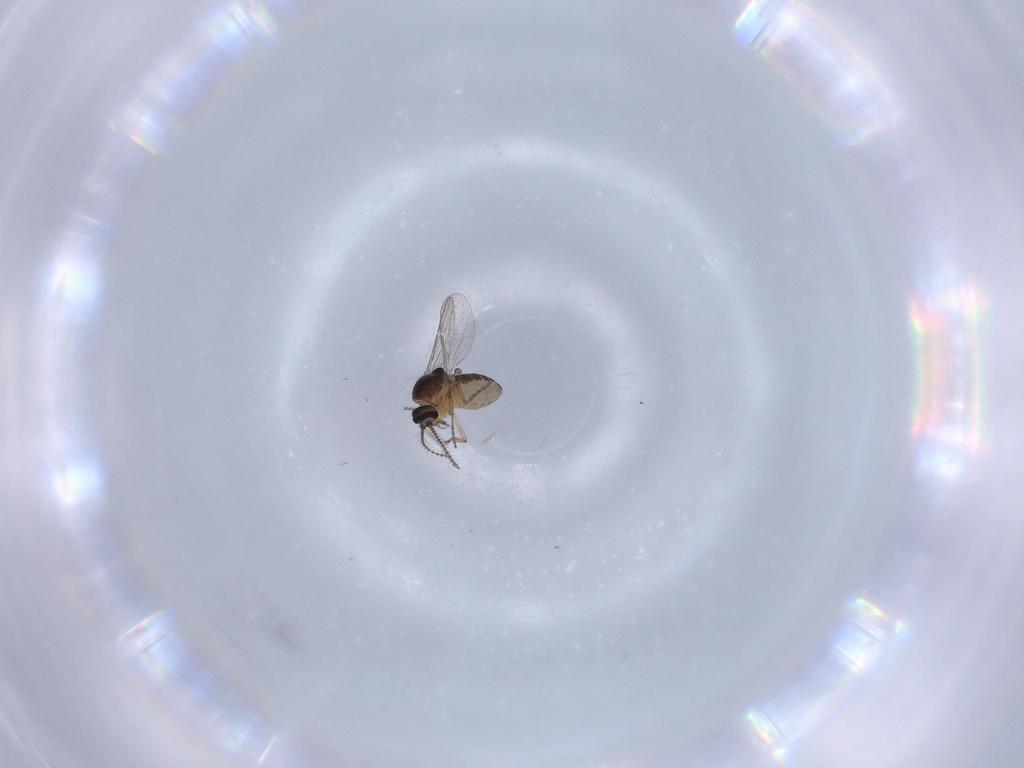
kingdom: Animalia
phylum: Arthropoda
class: Insecta
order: Diptera
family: Ceratopogonidae
